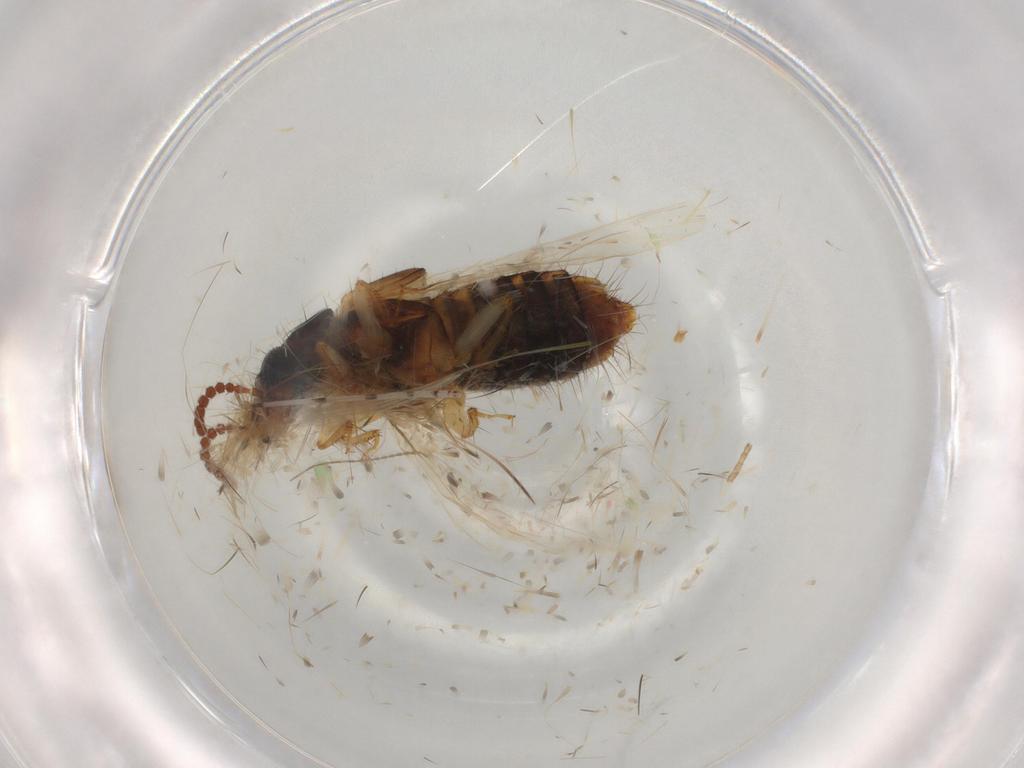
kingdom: Animalia
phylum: Arthropoda
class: Insecta
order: Coleoptera
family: Staphylinidae
